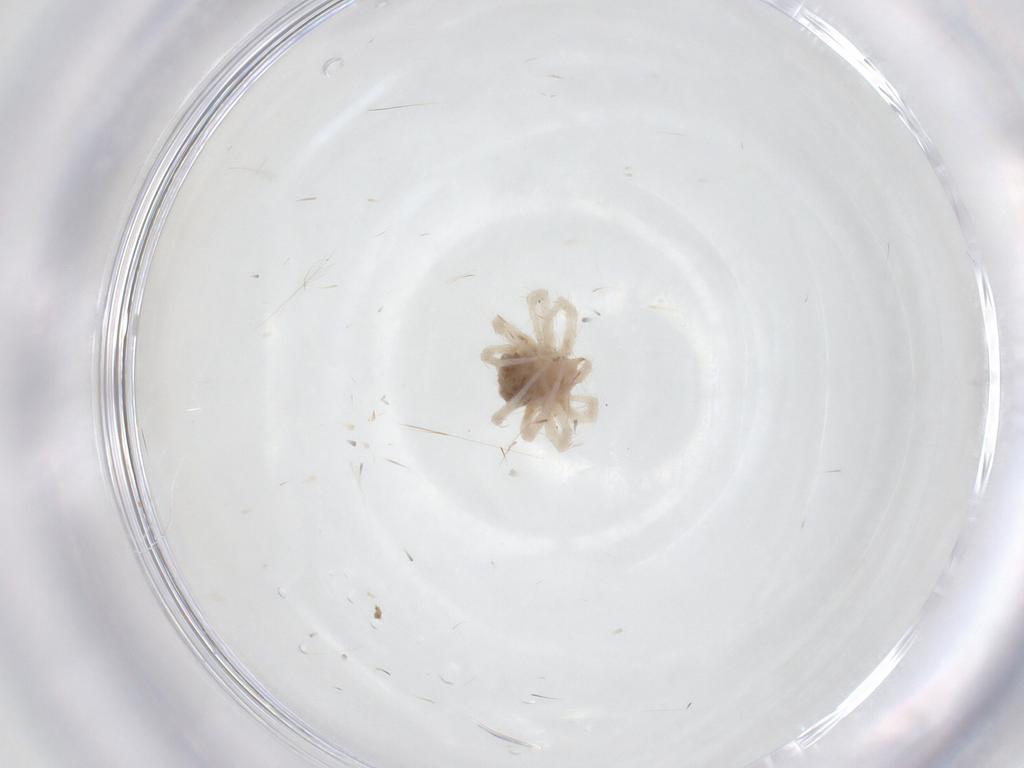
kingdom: Animalia
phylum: Arthropoda
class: Arachnida
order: Trombidiformes
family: Anystidae
